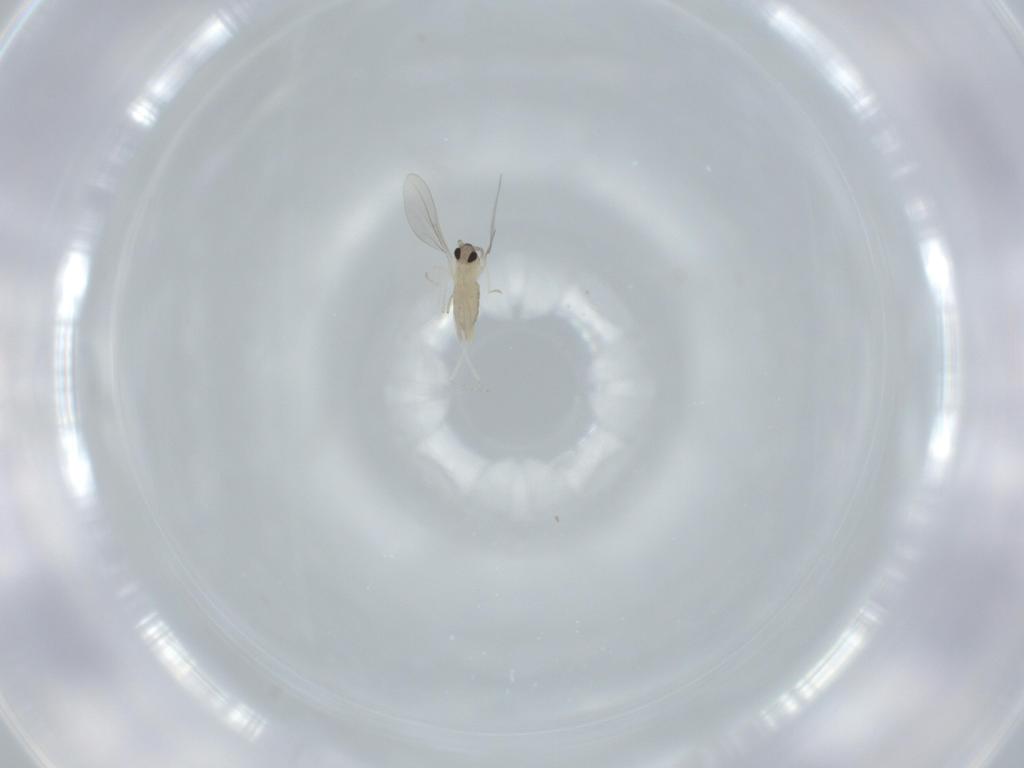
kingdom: Animalia
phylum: Arthropoda
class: Insecta
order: Diptera
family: Cecidomyiidae
